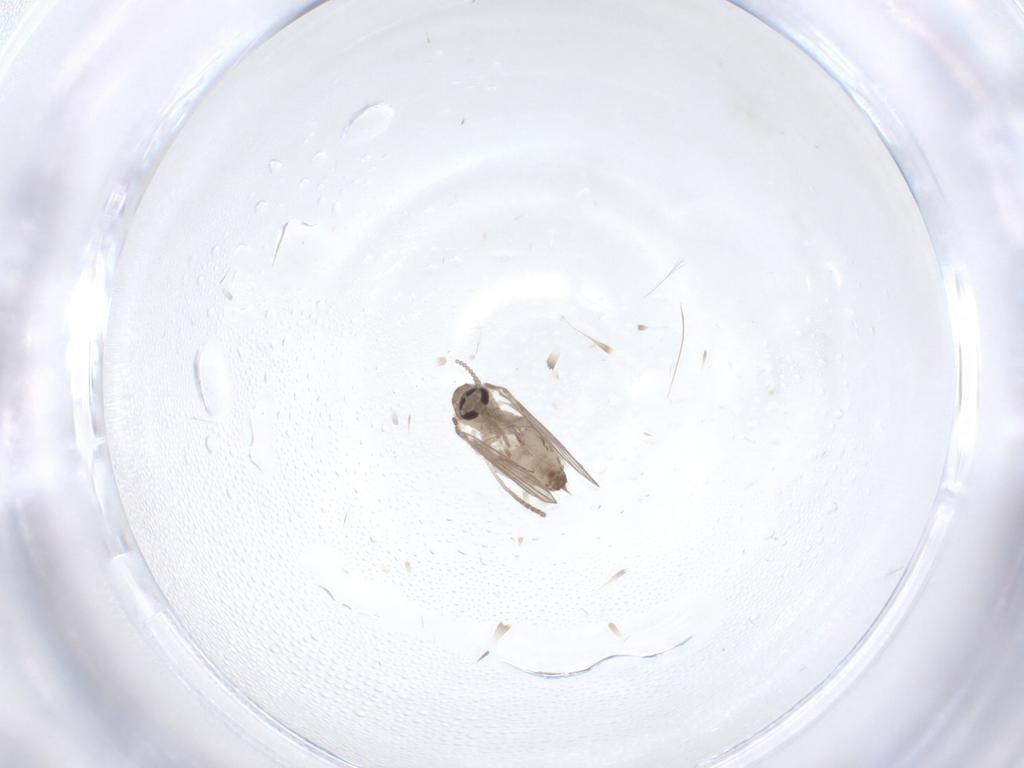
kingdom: Animalia
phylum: Arthropoda
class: Insecta
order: Diptera
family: Psychodidae
